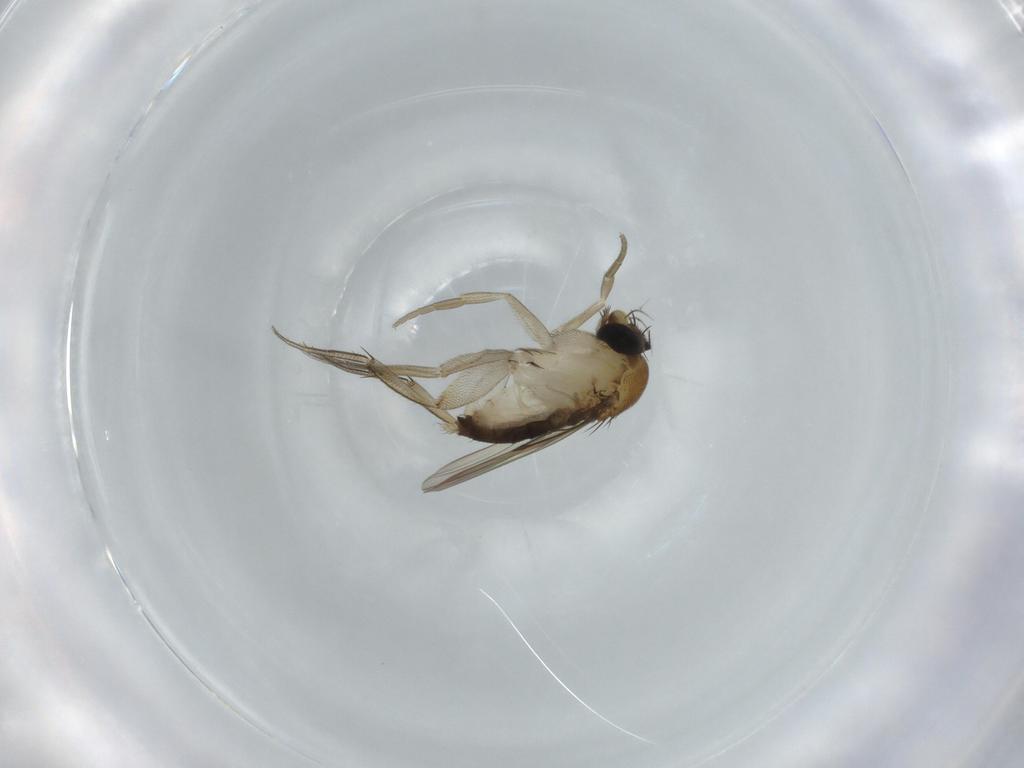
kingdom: Animalia
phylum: Arthropoda
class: Insecta
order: Diptera
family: Phoridae
